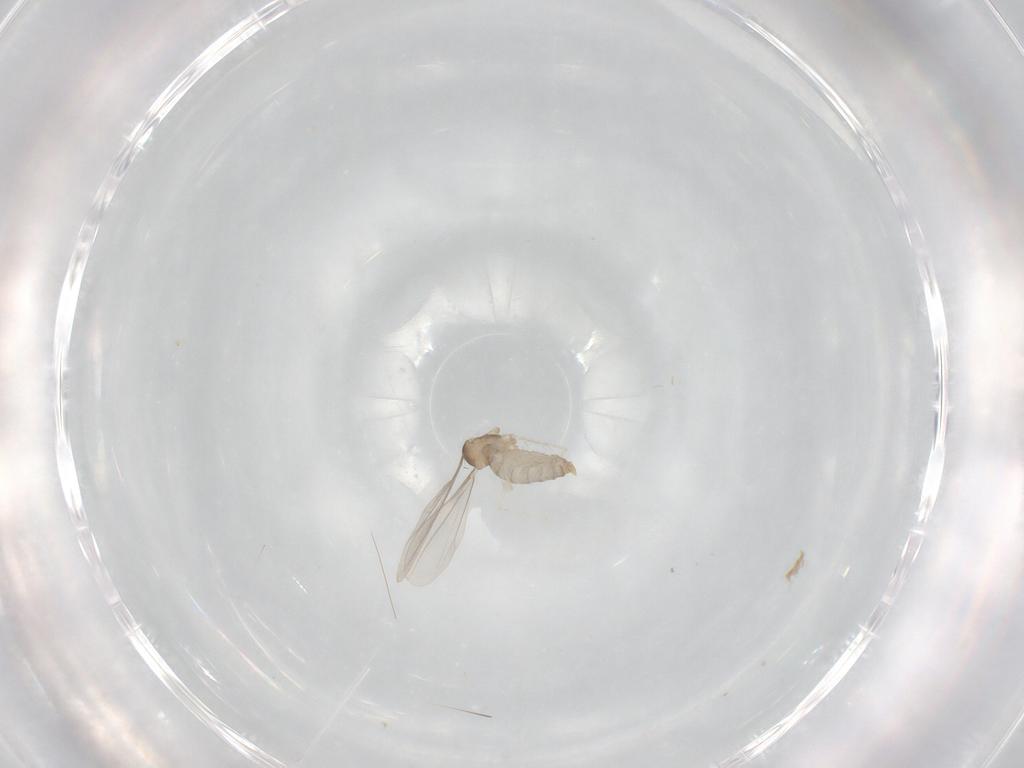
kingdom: Animalia
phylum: Arthropoda
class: Insecta
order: Diptera
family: Cecidomyiidae
